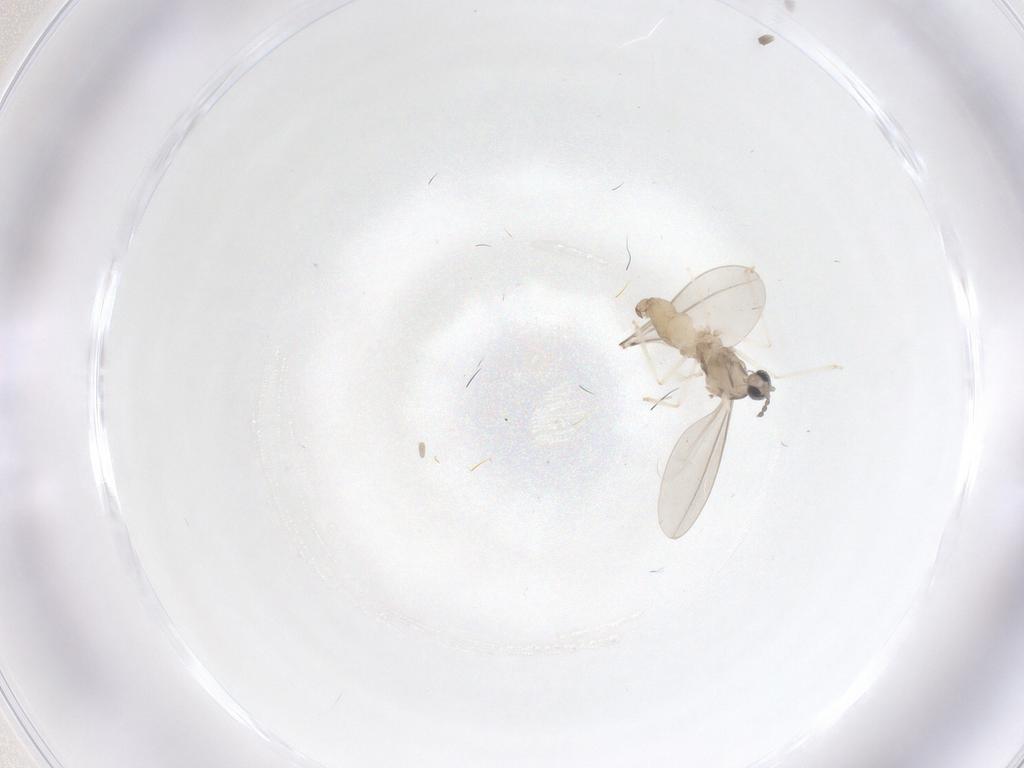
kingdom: Animalia
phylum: Arthropoda
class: Insecta
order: Diptera
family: Cecidomyiidae
